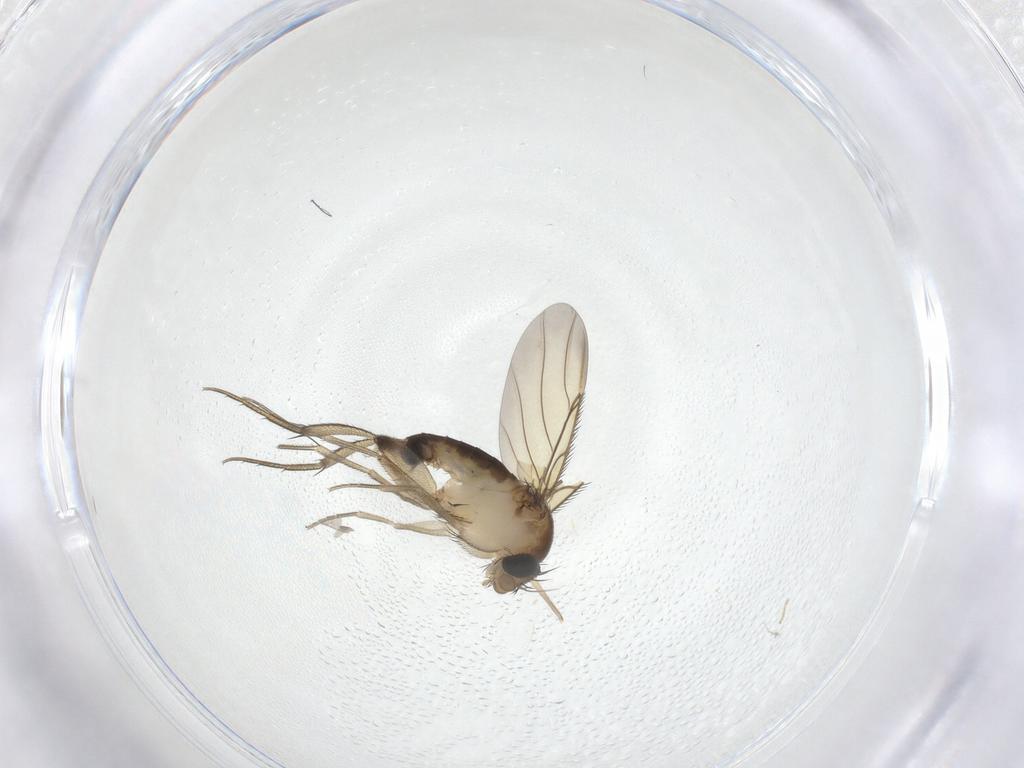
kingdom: Animalia
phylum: Arthropoda
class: Insecta
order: Diptera
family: Phoridae
